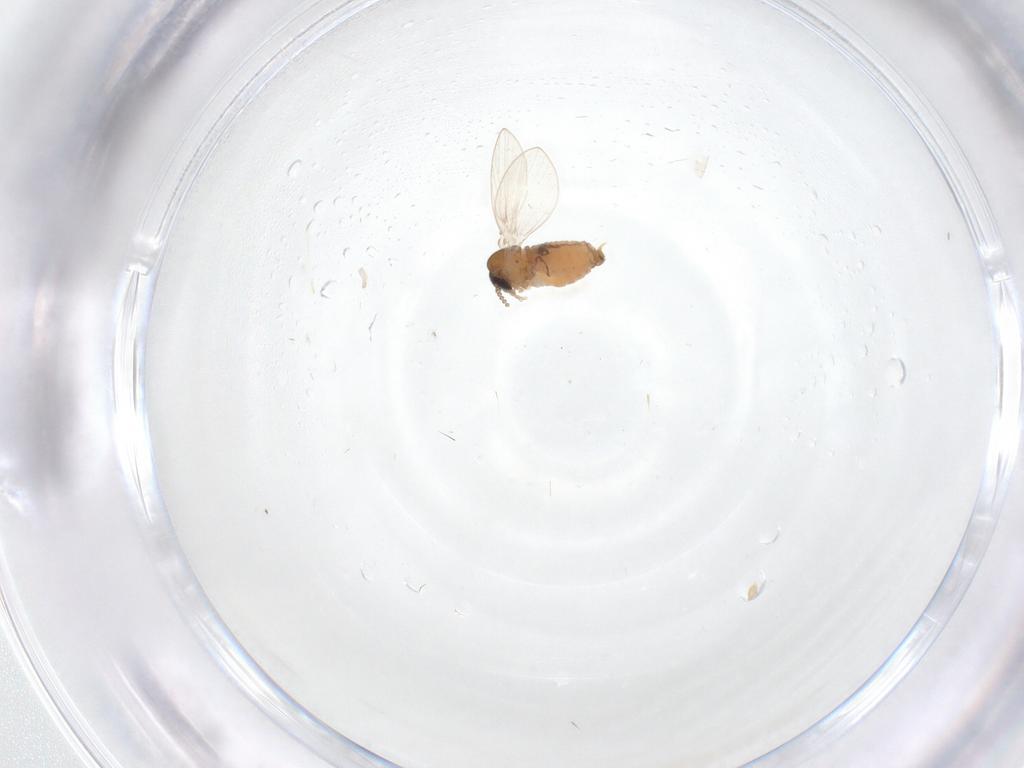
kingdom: Animalia
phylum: Arthropoda
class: Insecta
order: Diptera
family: Psychodidae
